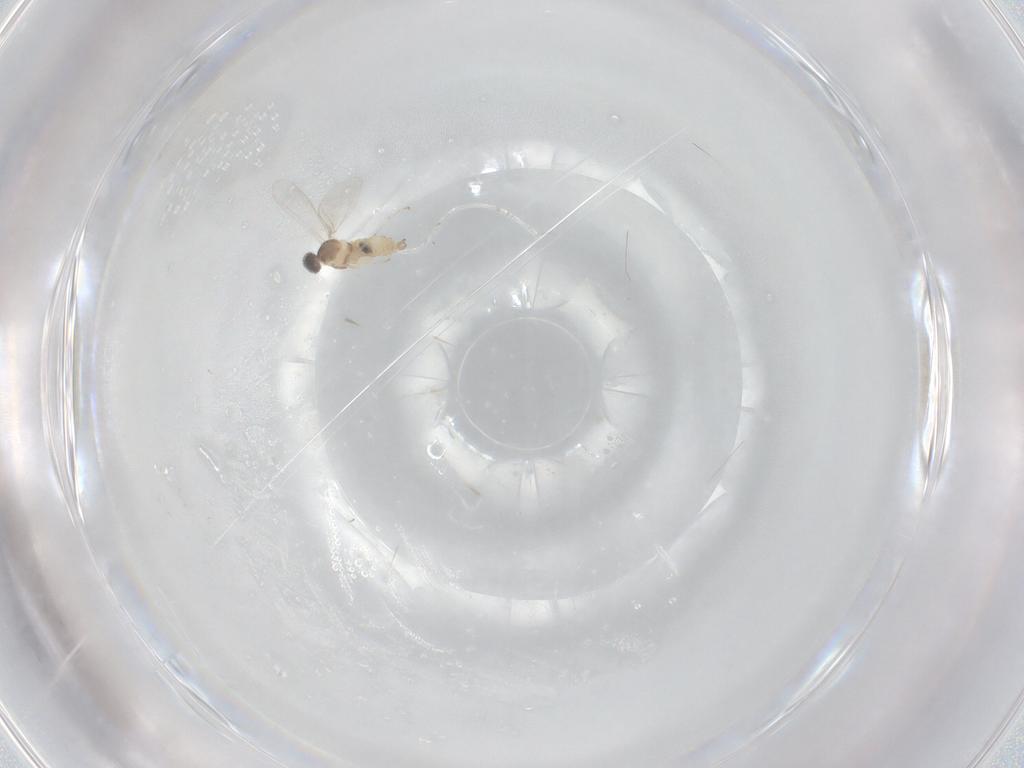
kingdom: Animalia
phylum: Arthropoda
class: Insecta
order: Diptera
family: Cecidomyiidae
